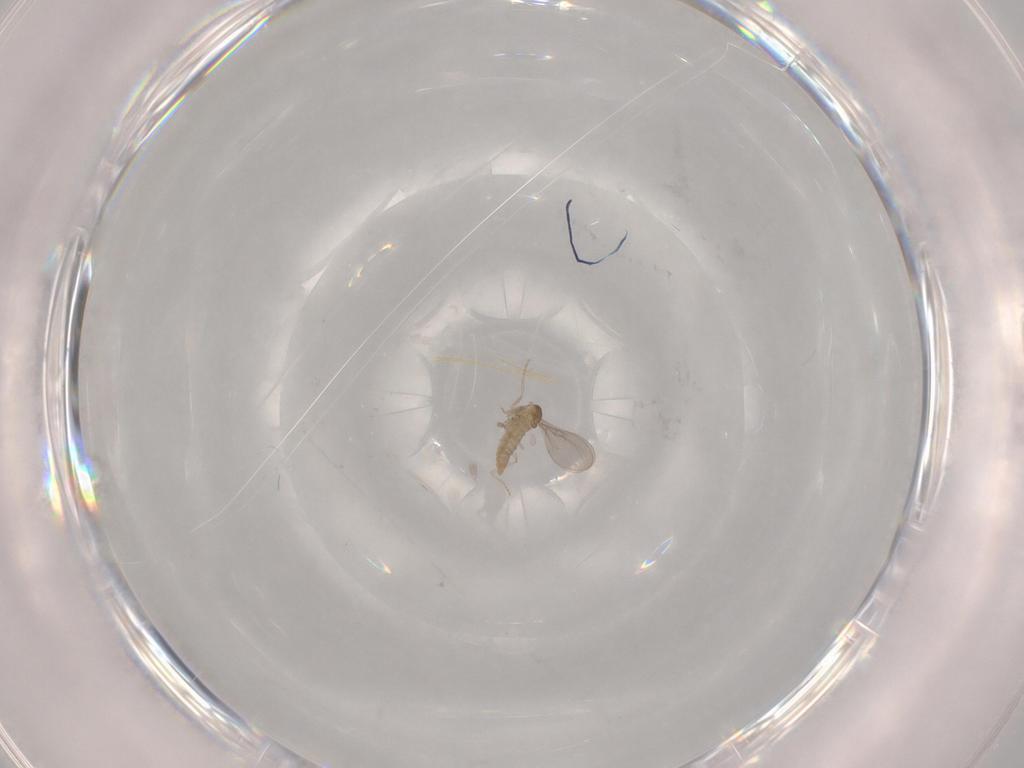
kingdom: Animalia
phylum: Arthropoda
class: Insecta
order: Diptera
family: Cecidomyiidae
